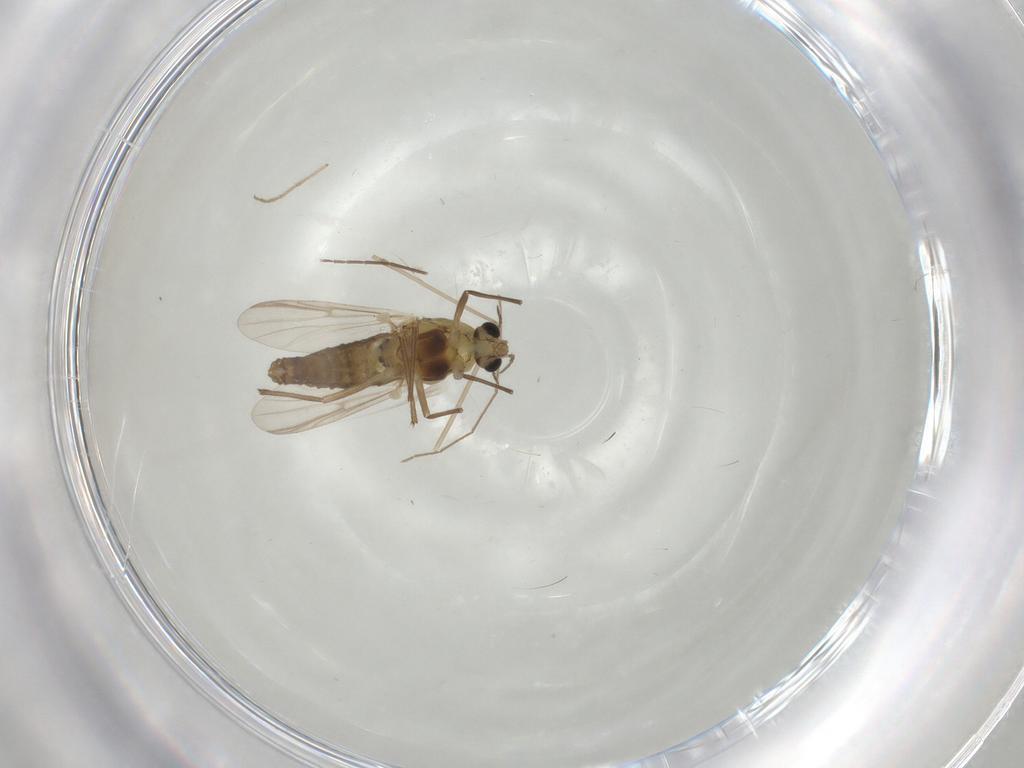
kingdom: Animalia
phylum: Arthropoda
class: Insecta
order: Diptera
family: Chironomidae
